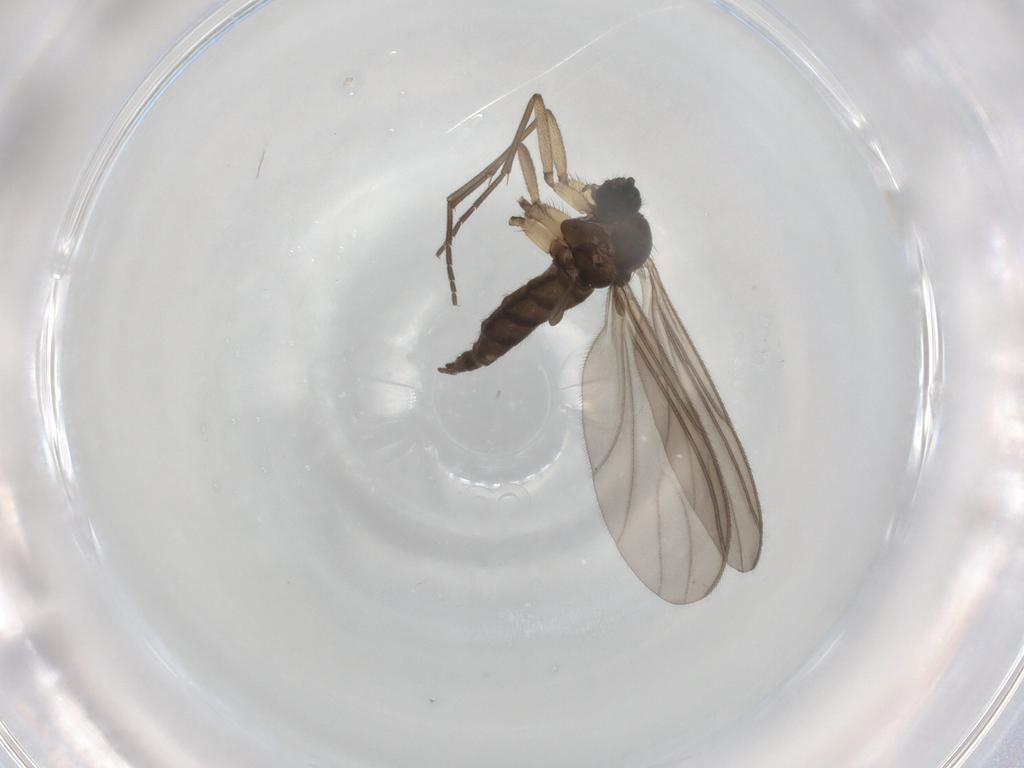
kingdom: Animalia
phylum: Arthropoda
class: Insecta
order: Diptera
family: Sciaridae
